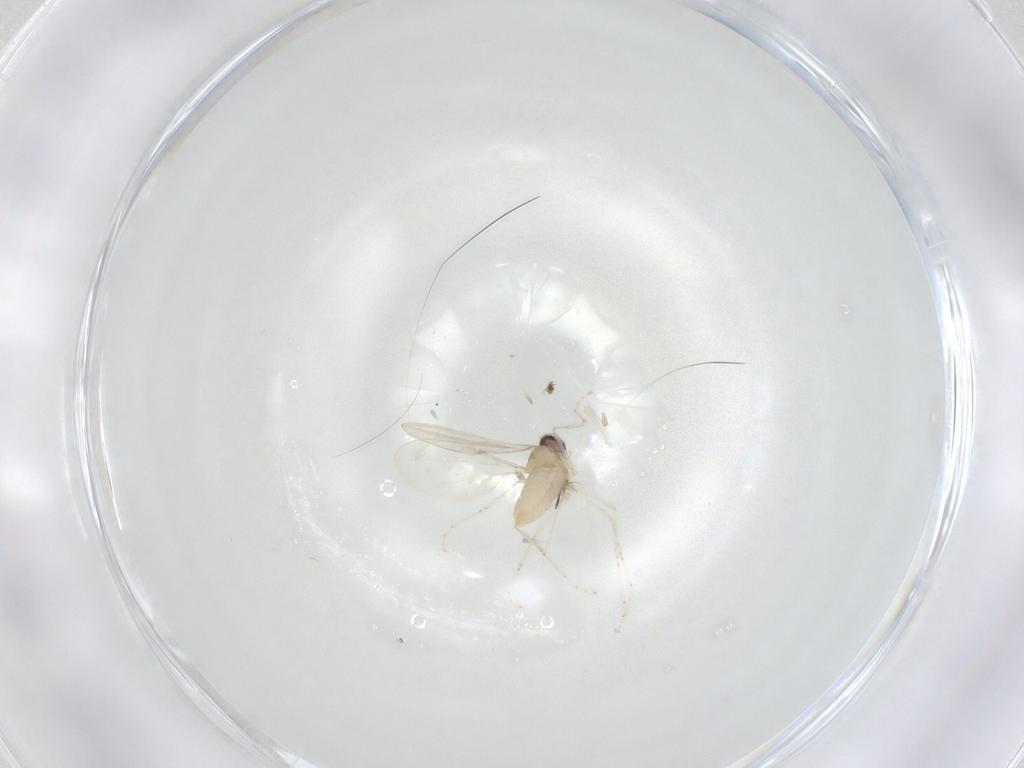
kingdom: Animalia
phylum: Arthropoda
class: Insecta
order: Diptera
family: Cecidomyiidae
